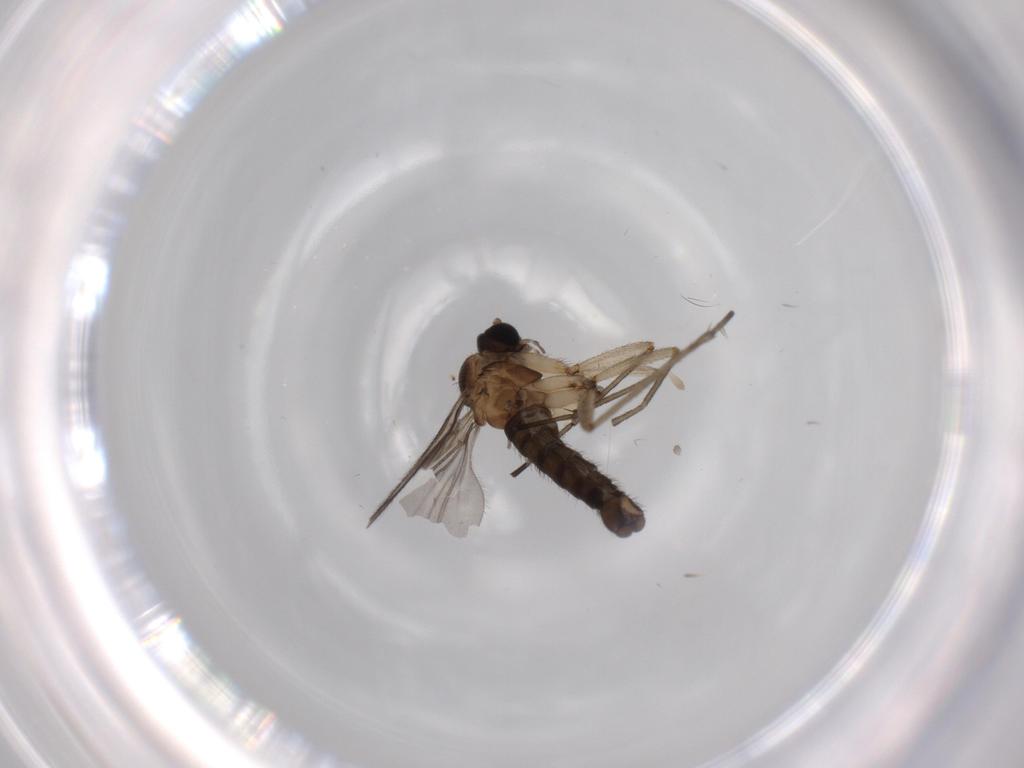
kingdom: Animalia
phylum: Arthropoda
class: Insecta
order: Diptera
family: Sciaridae
